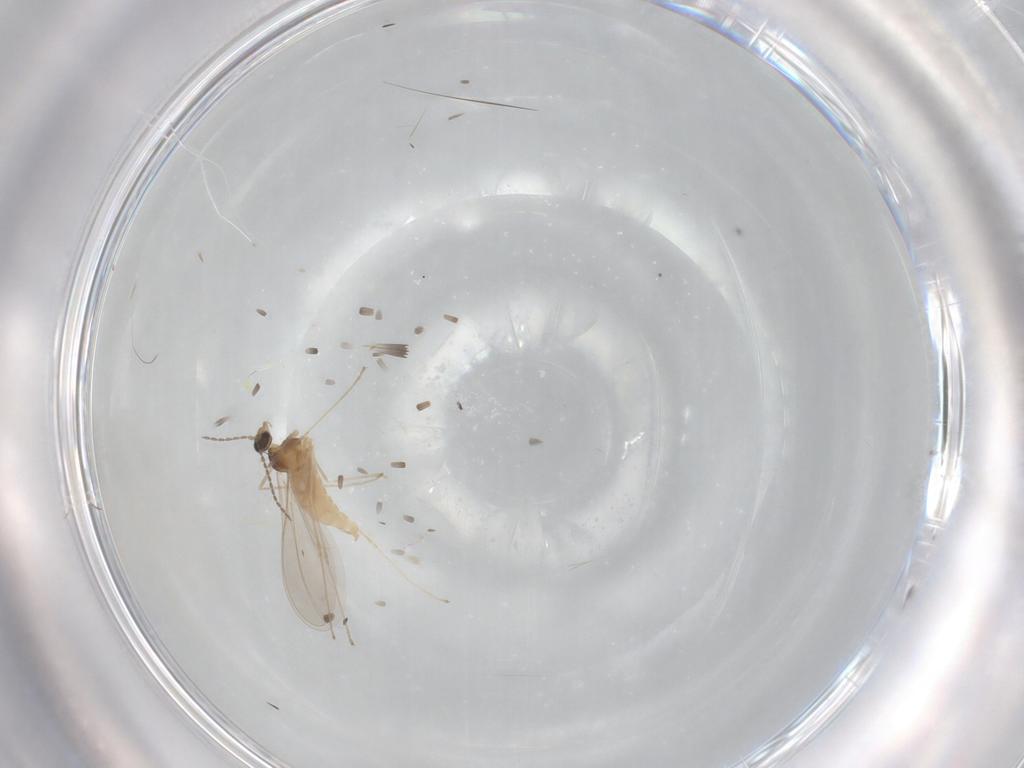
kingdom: Animalia
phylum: Arthropoda
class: Insecta
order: Diptera
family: Cecidomyiidae
